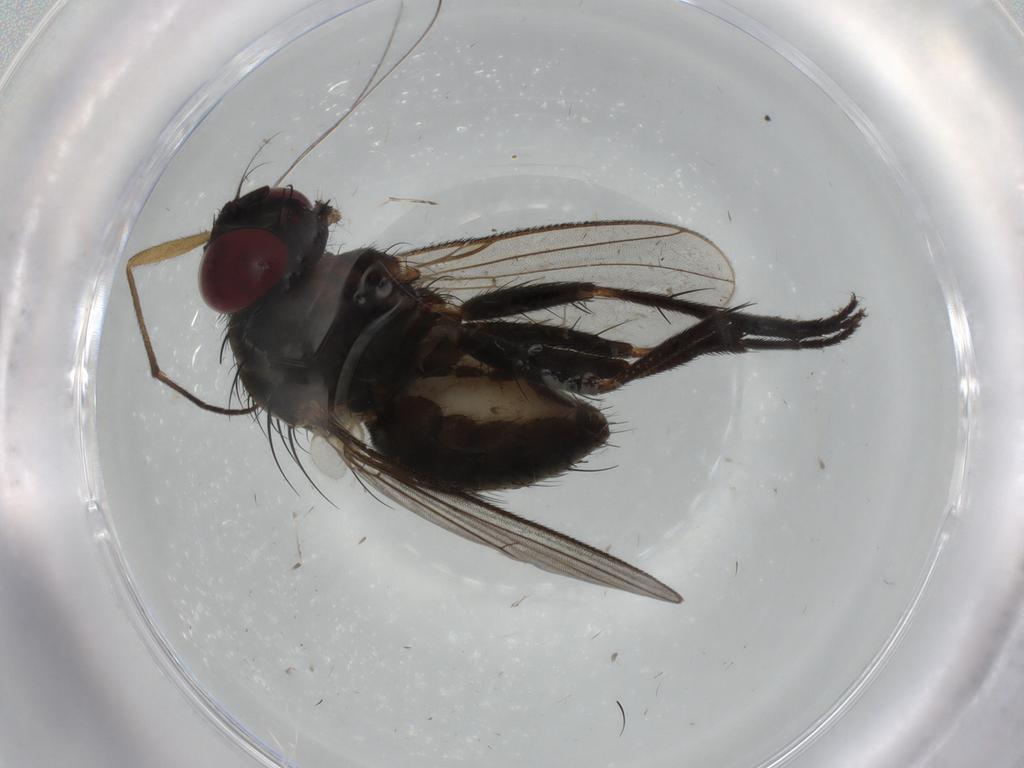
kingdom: Animalia
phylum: Arthropoda
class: Insecta
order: Diptera
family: Muscidae
